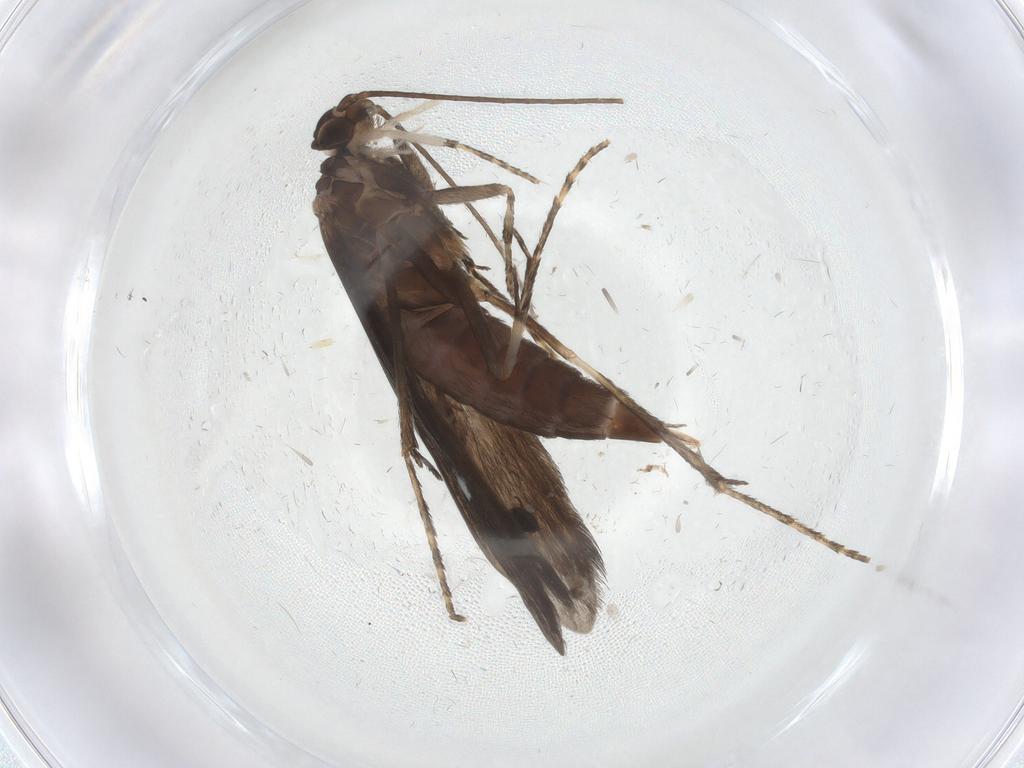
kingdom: Animalia
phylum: Arthropoda
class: Insecta
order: Trichoptera
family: Xiphocentronidae
